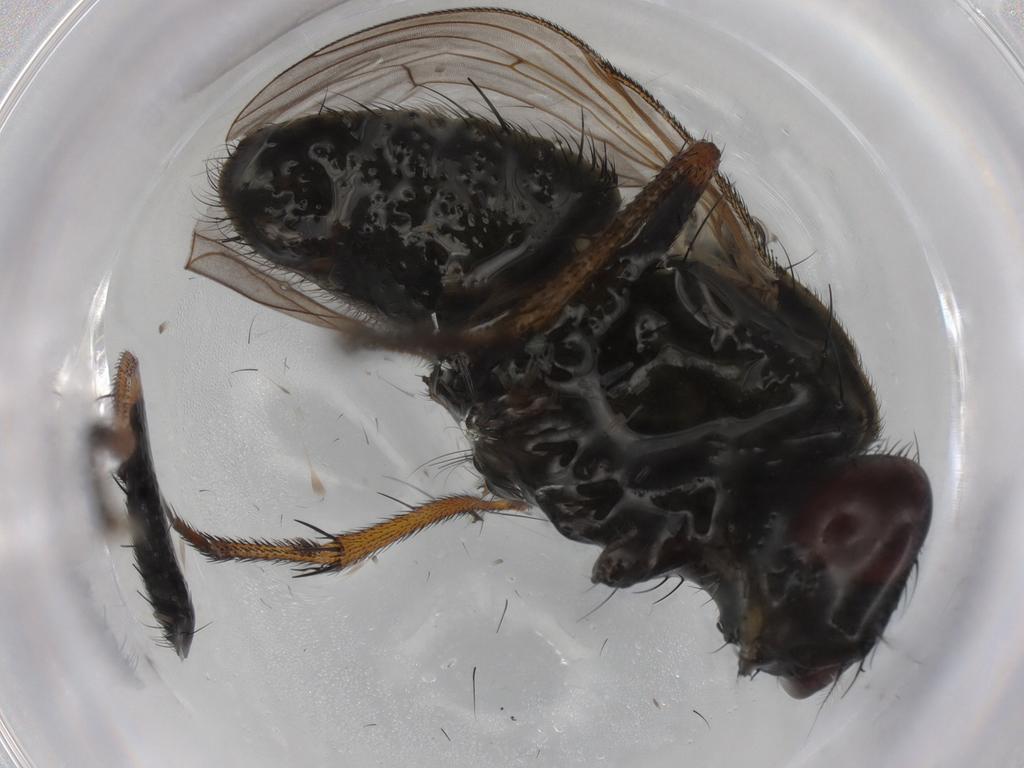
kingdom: Animalia
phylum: Arthropoda
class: Insecta
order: Diptera
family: Muscidae
